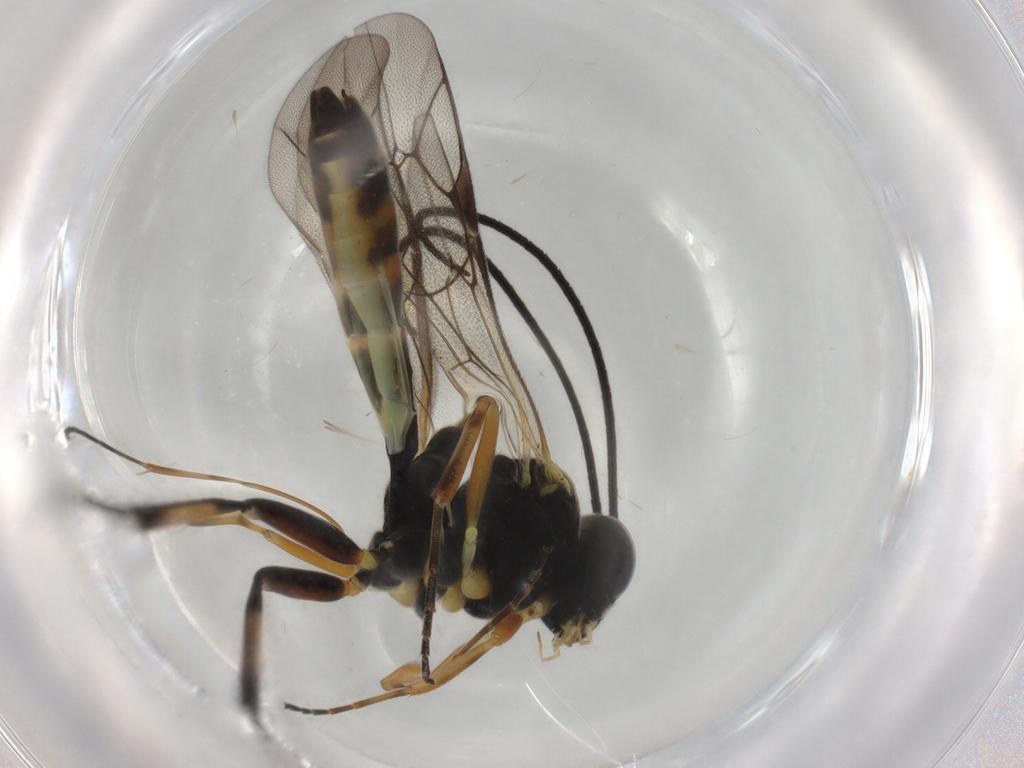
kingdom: Animalia
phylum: Arthropoda
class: Insecta
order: Hymenoptera
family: Ichneumonidae
